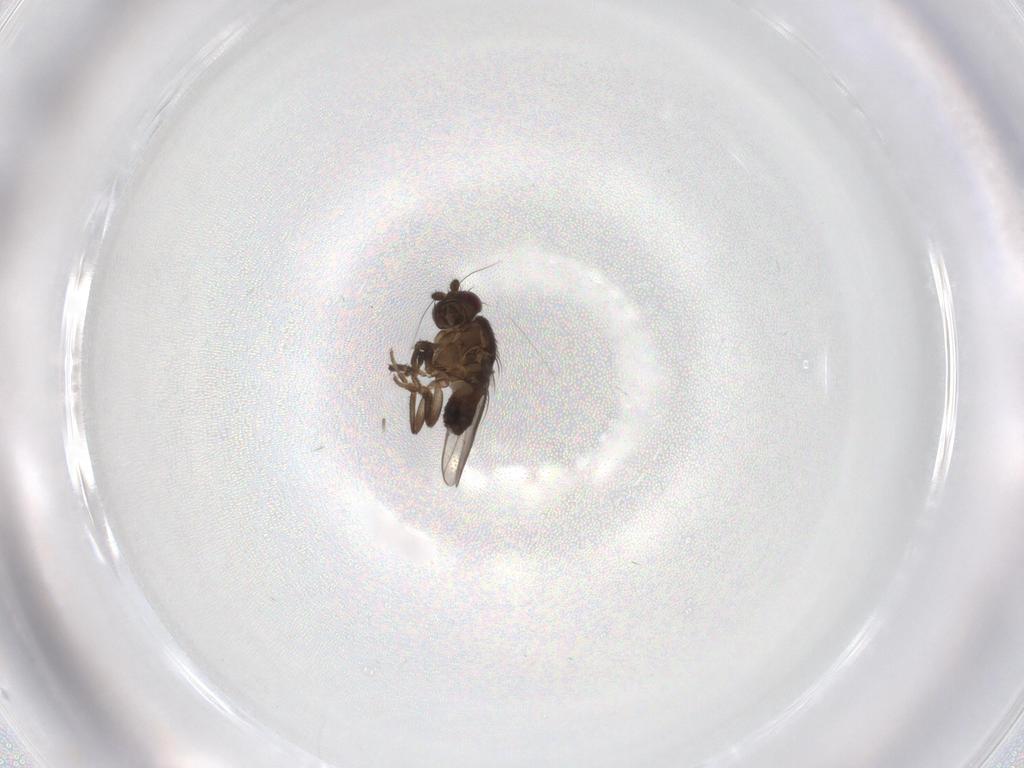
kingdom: Animalia
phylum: Arthropoda
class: Insecta
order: Diptera
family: Sphaeroceridae
